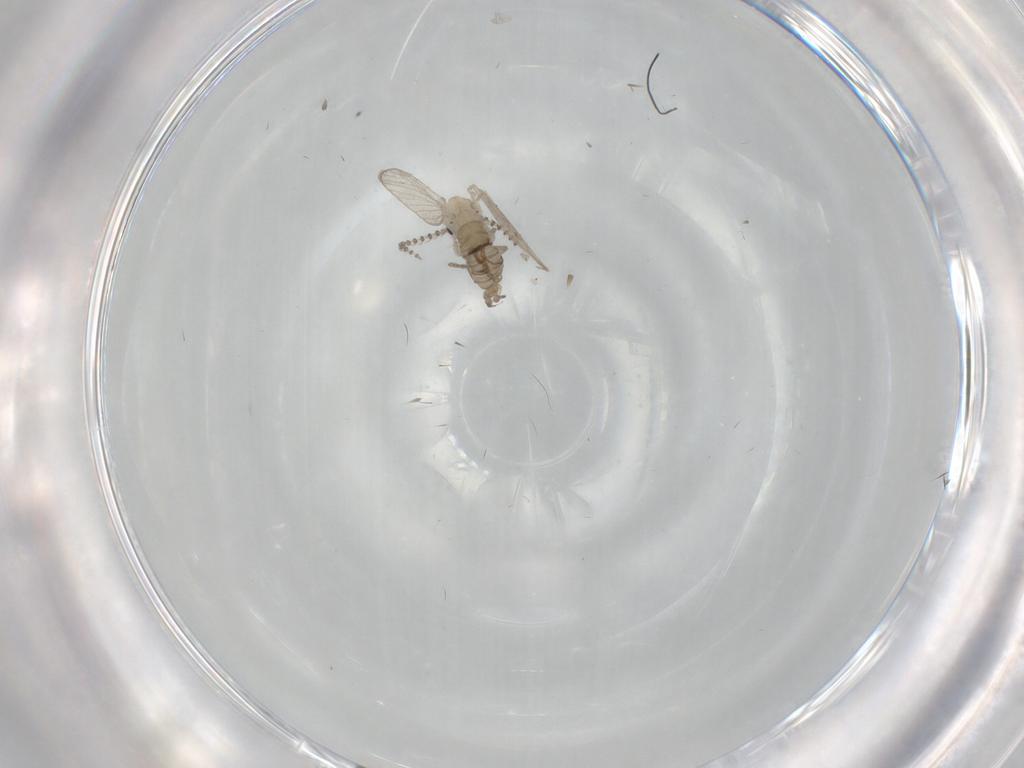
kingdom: Animalia
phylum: Arthropoda
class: Insecta
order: Diptera
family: Psychodidae
